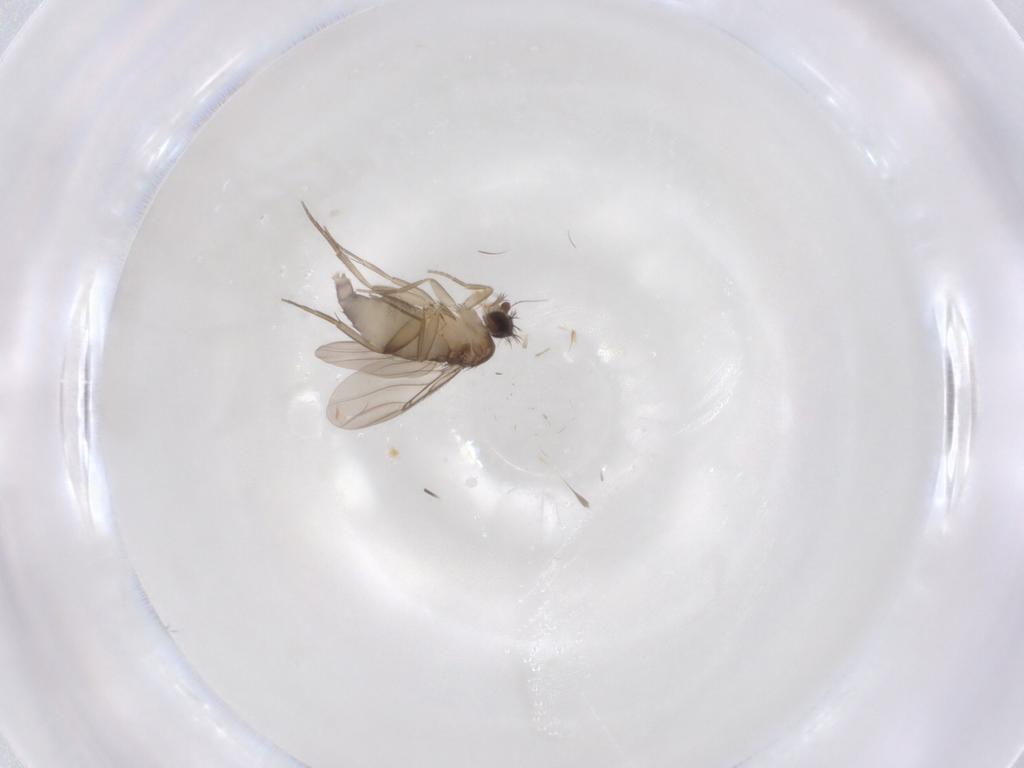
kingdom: Animalia
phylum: Arthropoda
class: Insecta
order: Diptera
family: Phoridae
